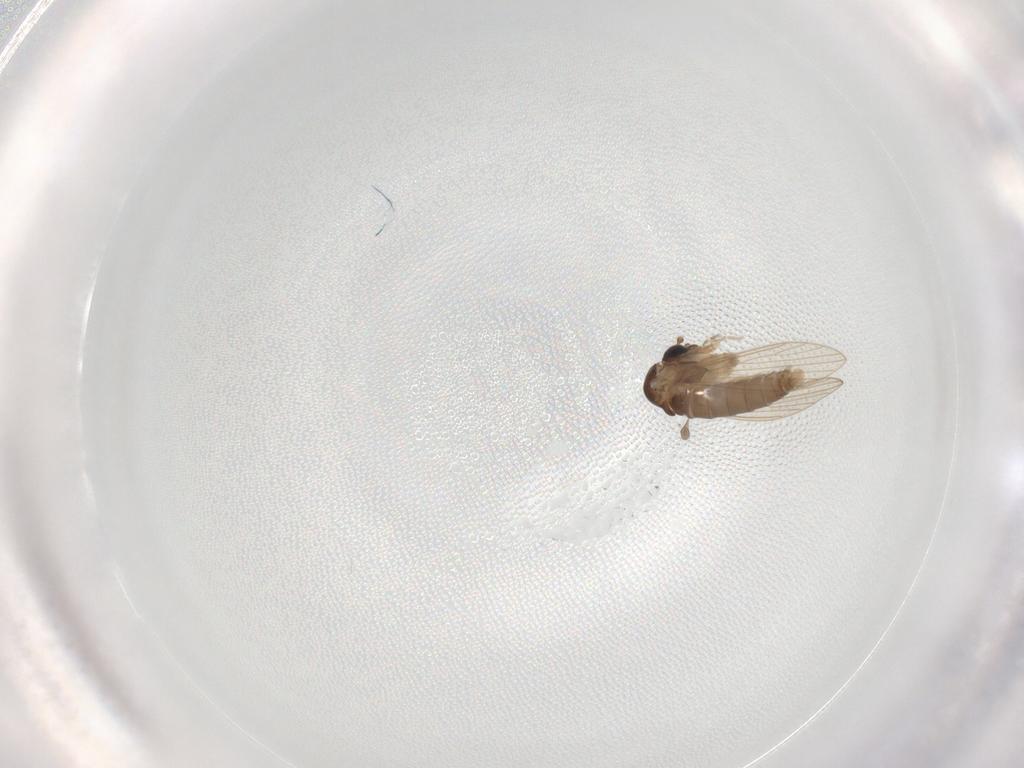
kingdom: Animalia
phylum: Arthropoda
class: Insecta
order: Diptera
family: Psychodidae
